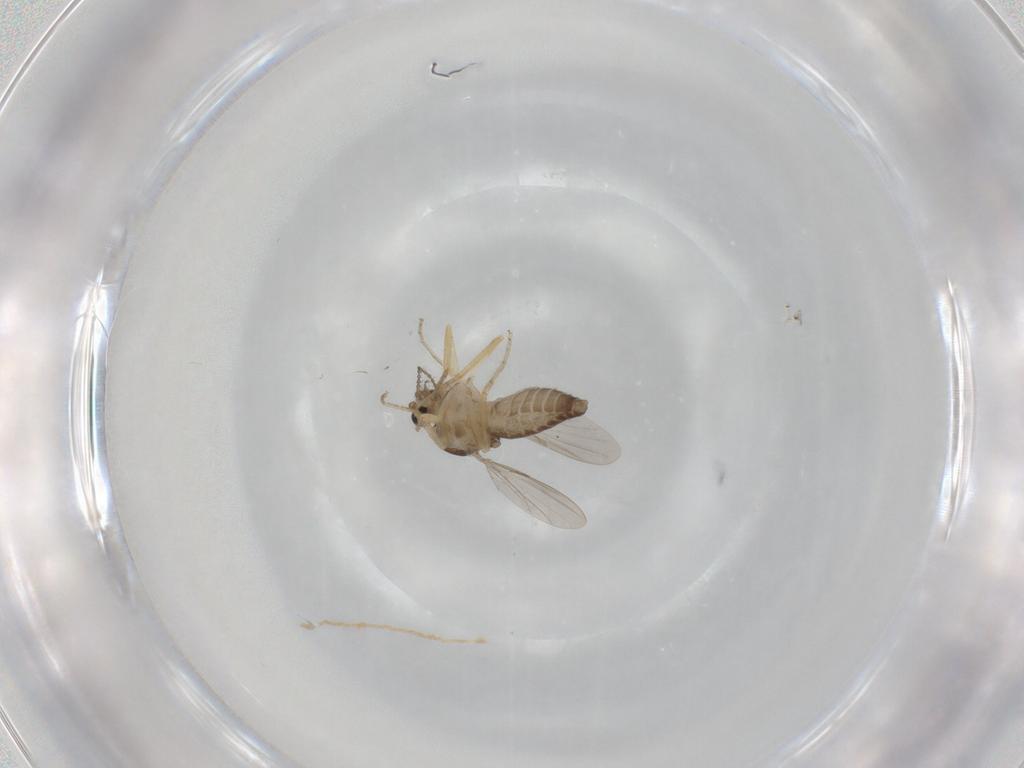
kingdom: Animalia
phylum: Arthropoda
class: Insecta
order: Diptera
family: Ceratopogonidae
